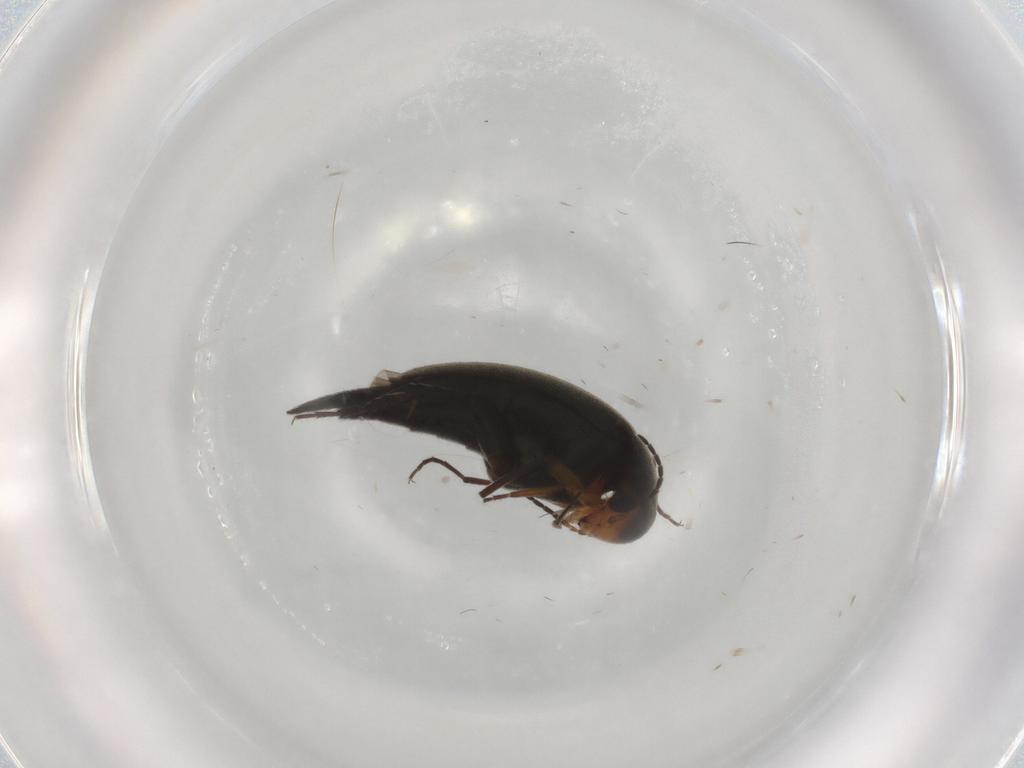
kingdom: Animalia
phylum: Arthropoda
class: Insecta
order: Coleoptera
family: Mordellidae
